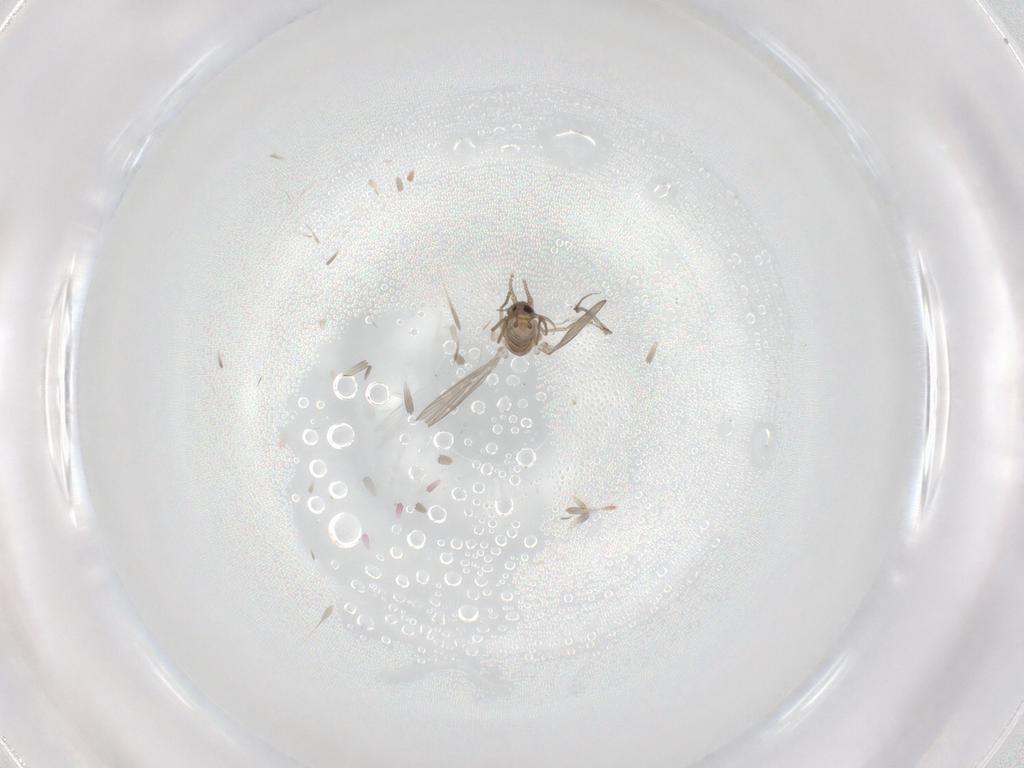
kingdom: Animalia
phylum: Arthropoda
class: Insecta
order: Diptera
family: Psychodidae
